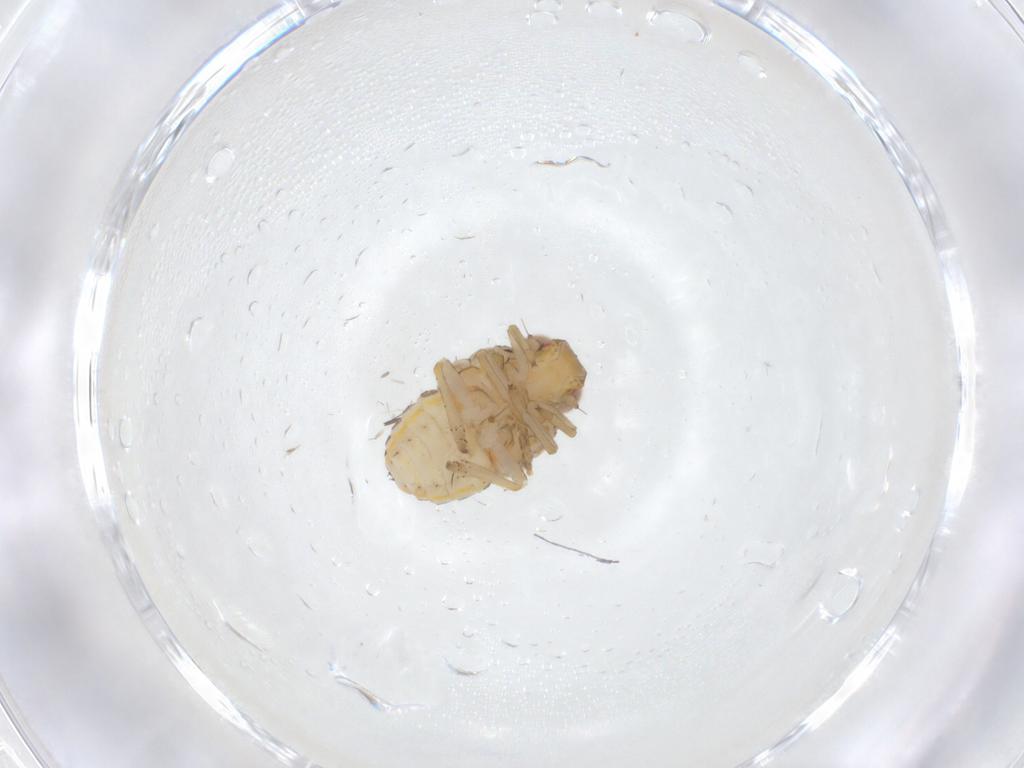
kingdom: Animalia
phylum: Arthropoda
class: Insecta
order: Hemiptera
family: Issidae
